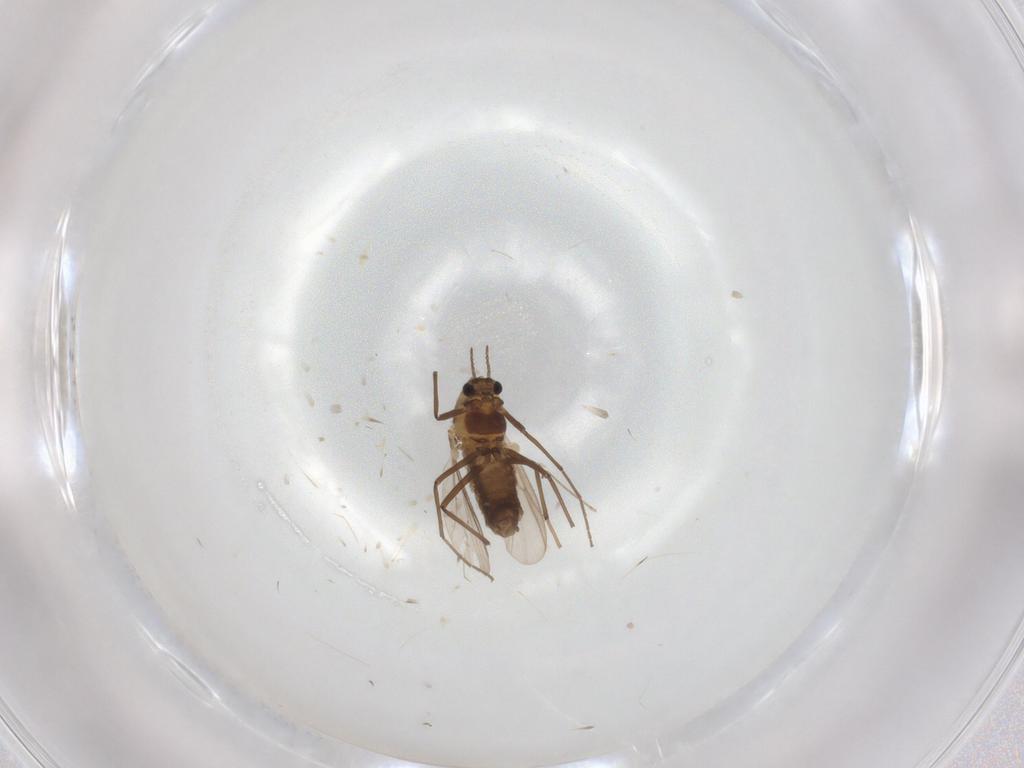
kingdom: Animalia
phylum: Arthropoda
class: Insecta
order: Diptera
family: Chironomidae
